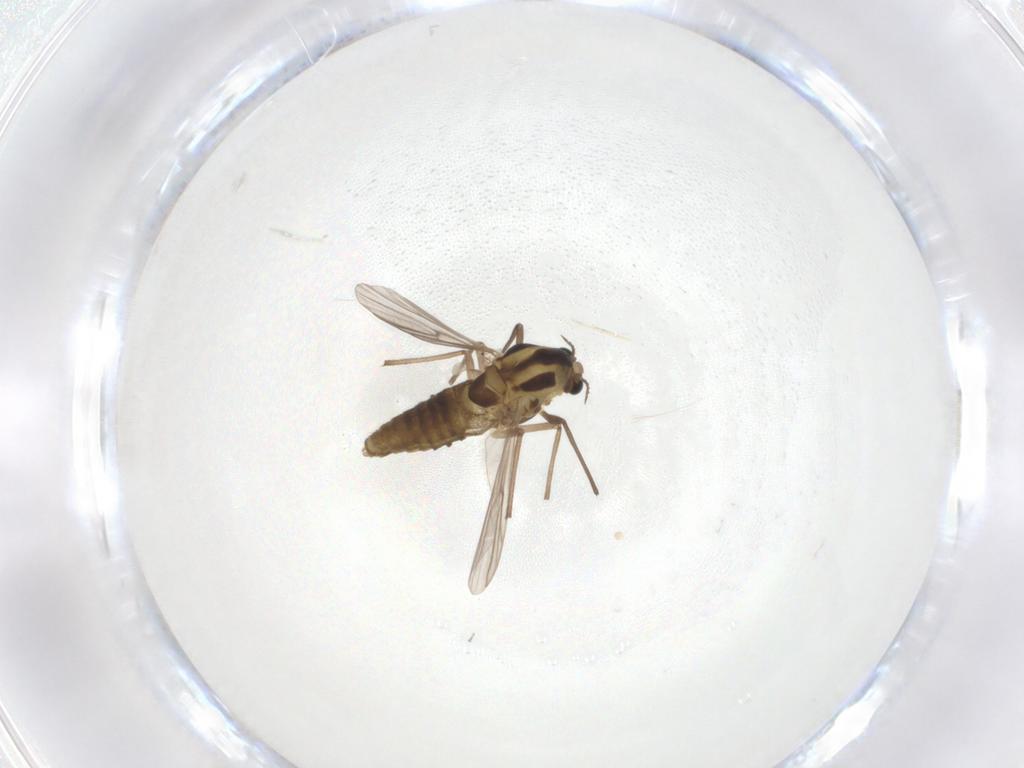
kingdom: Animalia
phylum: Arthropoda
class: Insecta
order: Diptera
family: Chironomidae
